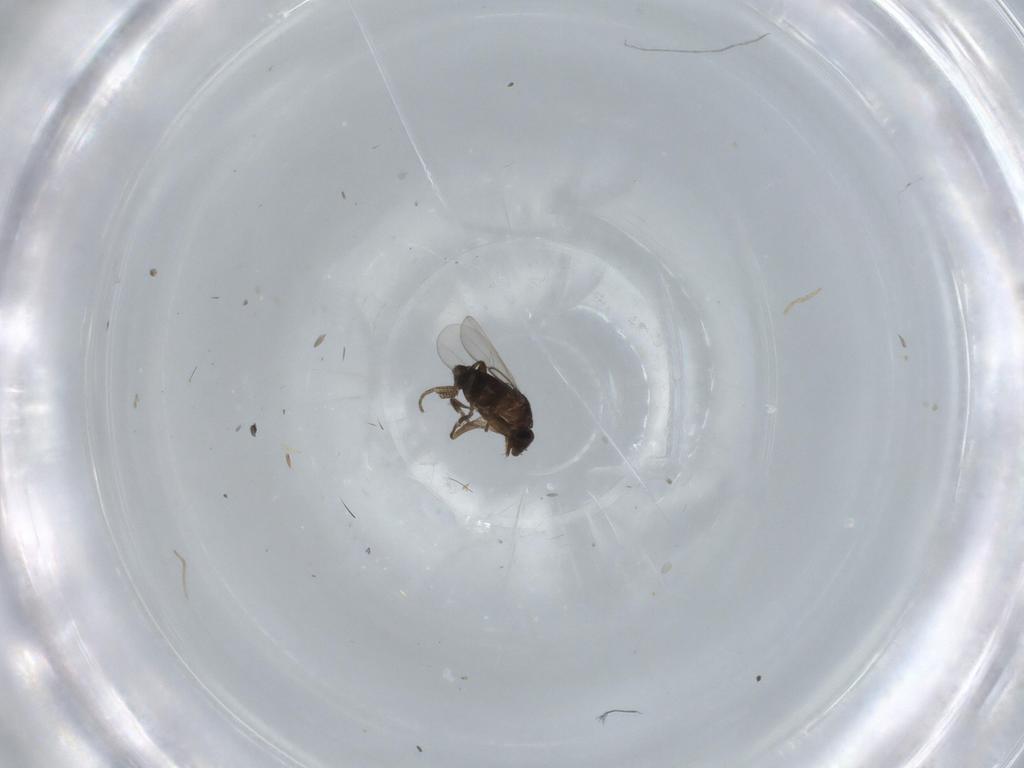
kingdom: Animalia
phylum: Arthropoda
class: Insecta
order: Diptera
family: Phoridae
